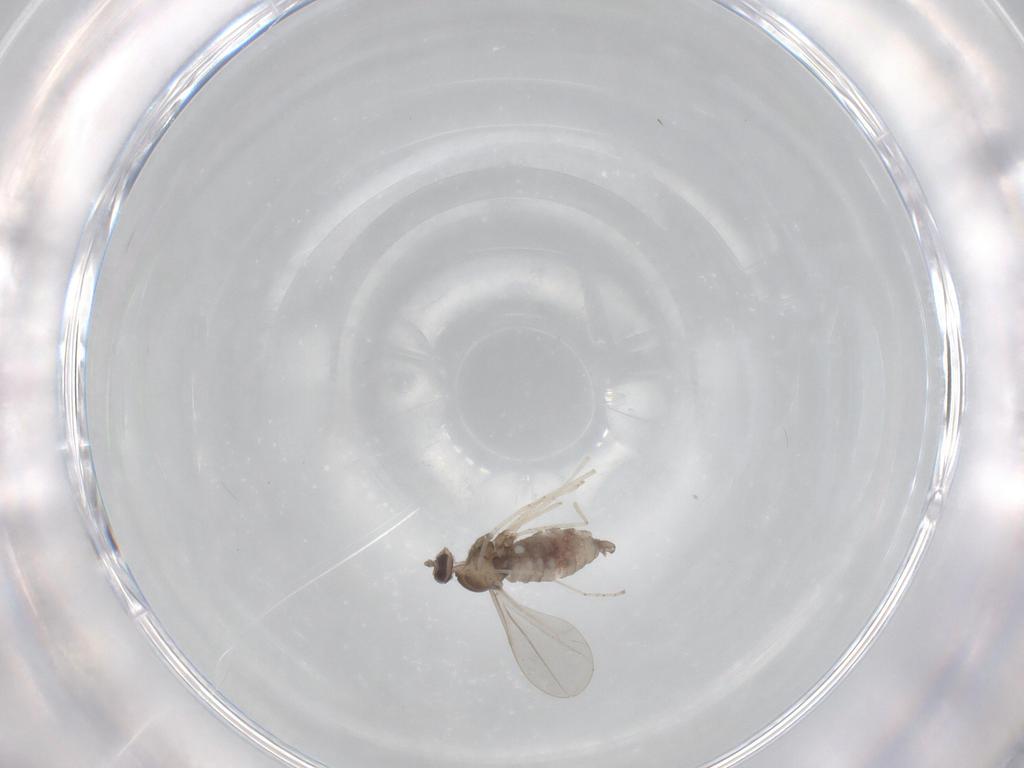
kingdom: Animalia
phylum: Arthropoda
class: Insecta
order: Diptera
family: Cecidomyiidae
